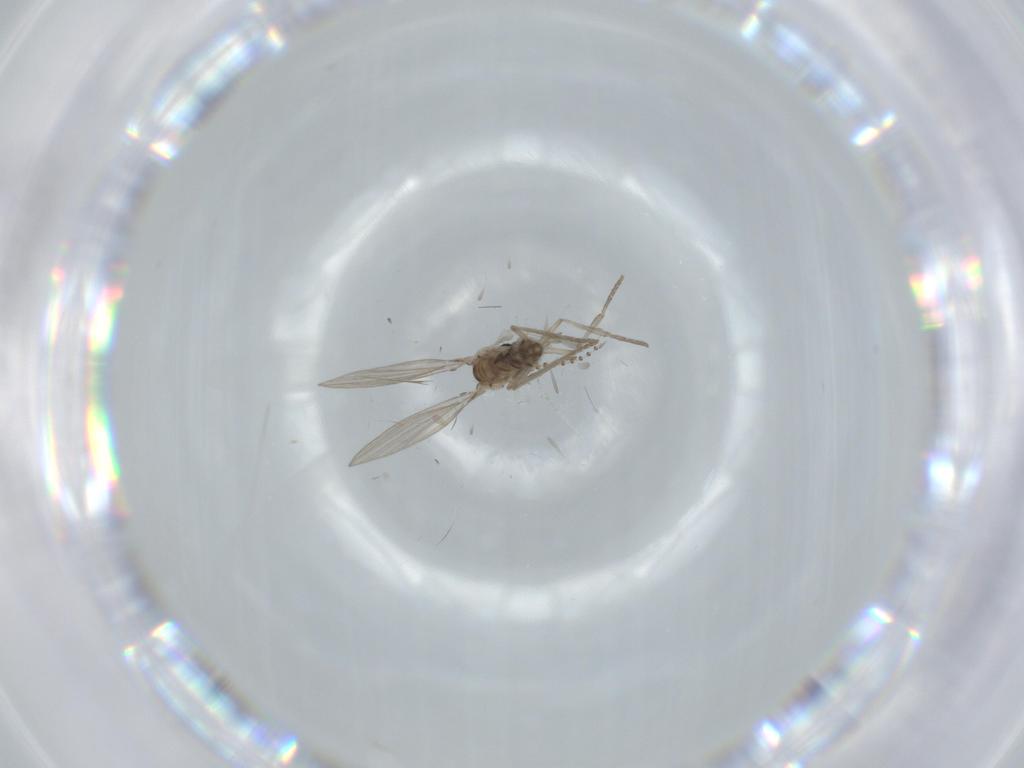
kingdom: Animalia
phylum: Arthropoda
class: Insecta
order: Diptera
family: Psychodidae
